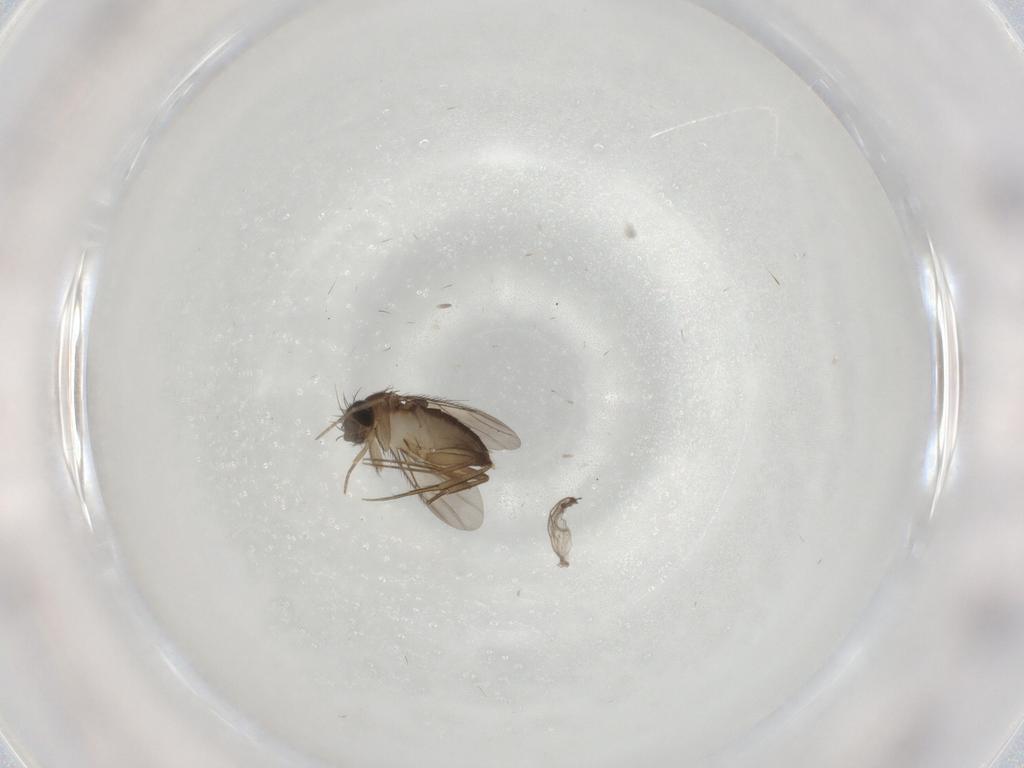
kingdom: Animalia
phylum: Arthropoda
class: Insecta
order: Diptera
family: Phoridae
